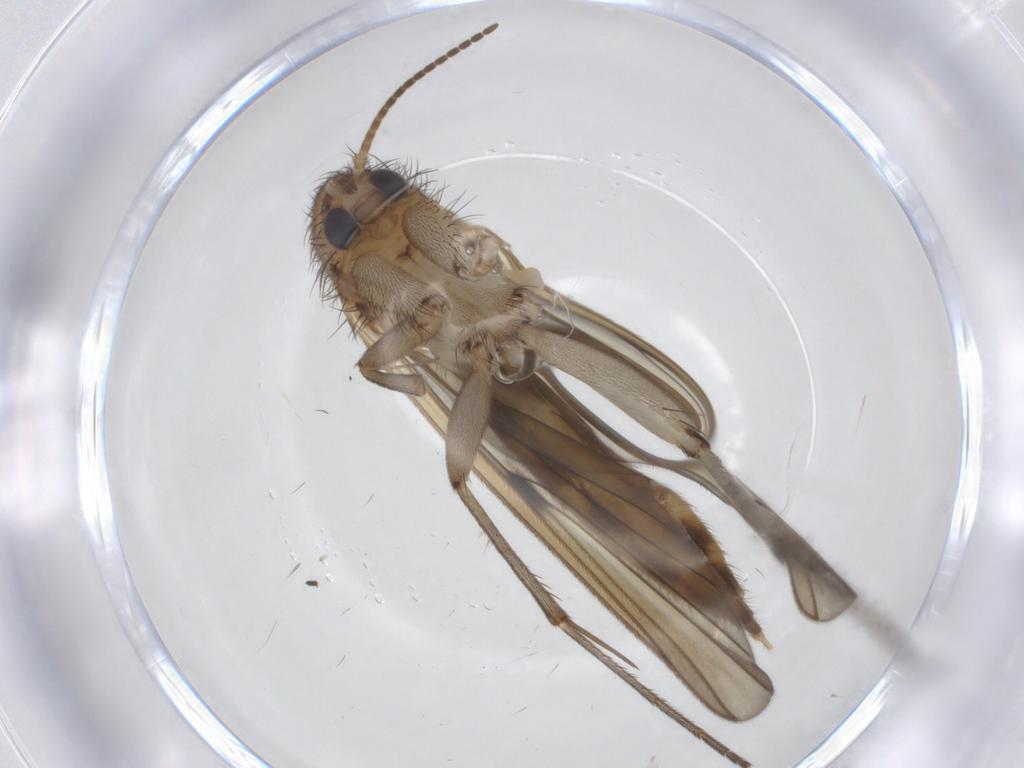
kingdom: Animalia
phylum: Arthropoda
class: Insecta
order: Diptera
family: Mycetophilidae
